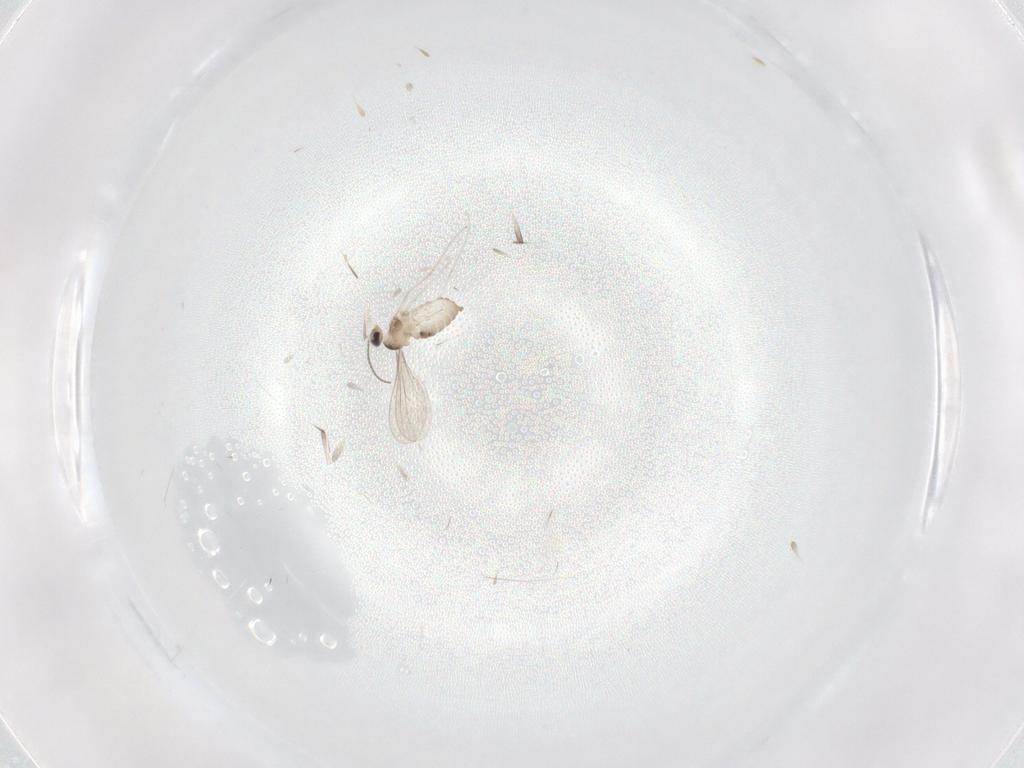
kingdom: Animalia
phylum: Arthropoda
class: Insecta
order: Diptera
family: Cecidomyiidae
